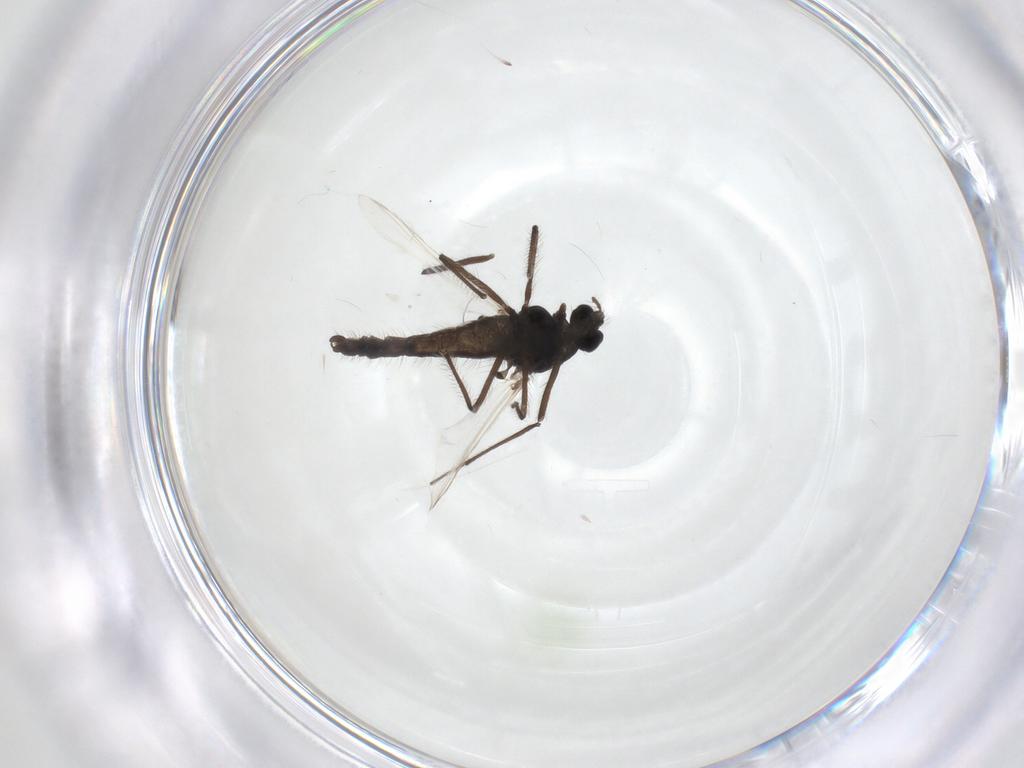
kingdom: Animalia
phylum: Arthropoda
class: Insecta
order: Diptera
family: Chironomidae
